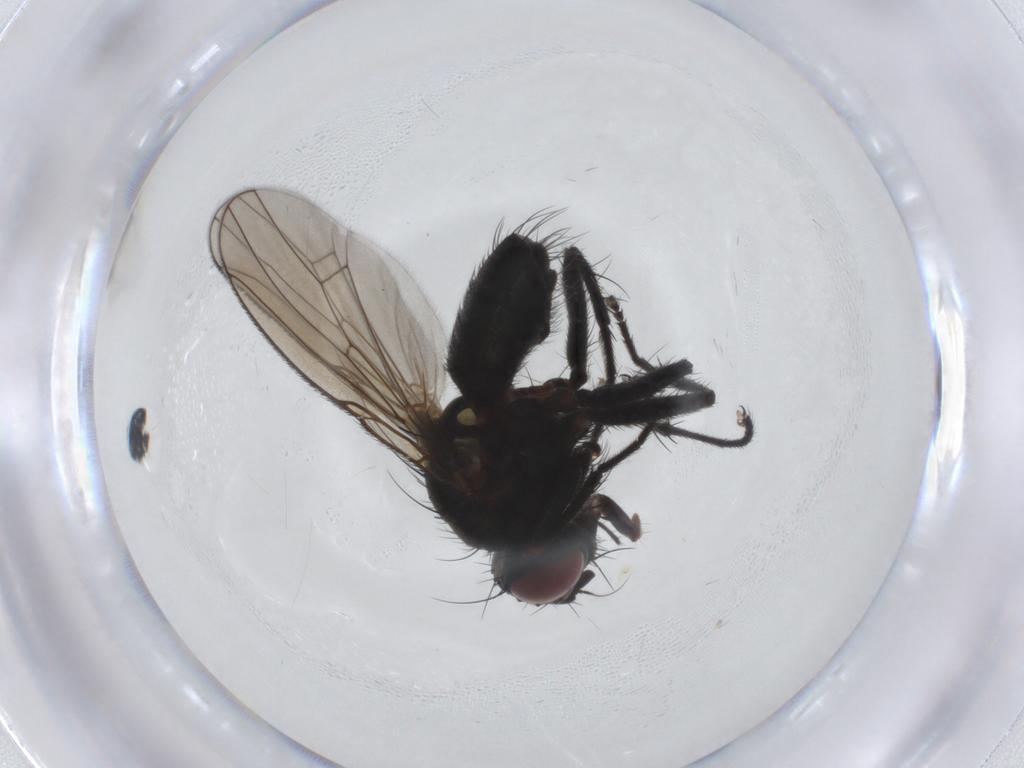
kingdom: Animalia
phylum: Arthropoda
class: Insecta
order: Diptera
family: Muscidae
